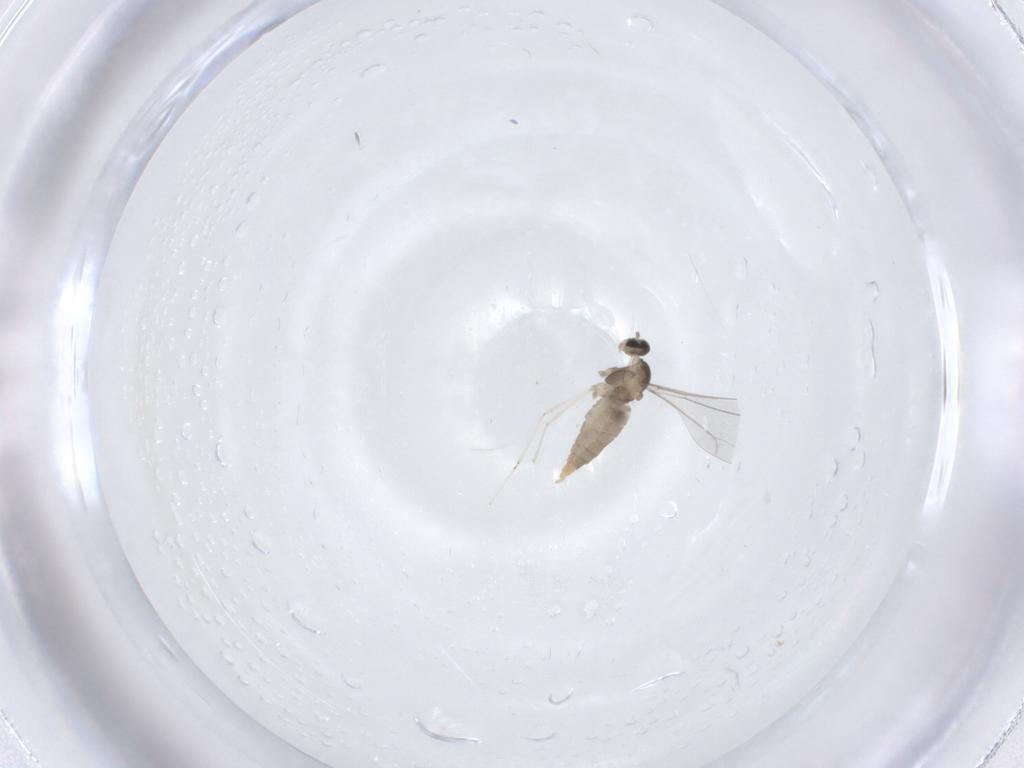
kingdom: Animalia
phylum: Arthropoda
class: Insecta
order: Diptera
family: Cecidomyiidae
